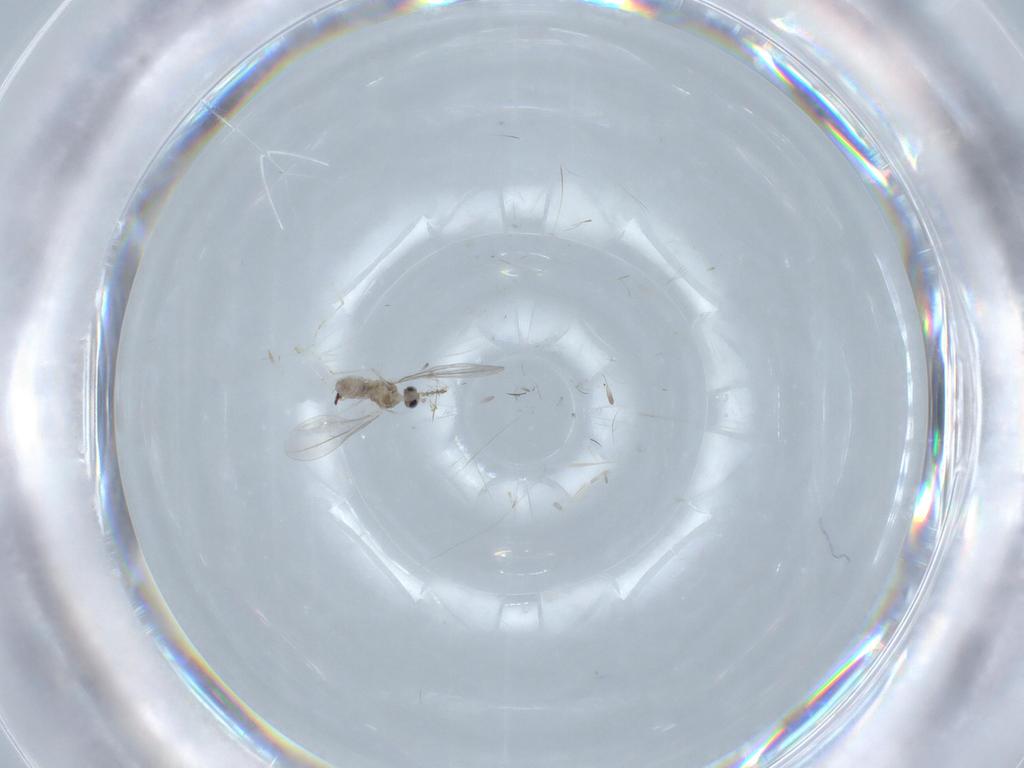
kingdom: Animalia
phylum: Arthropoda
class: Insecta
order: Diptera
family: Cecidomyiidae
